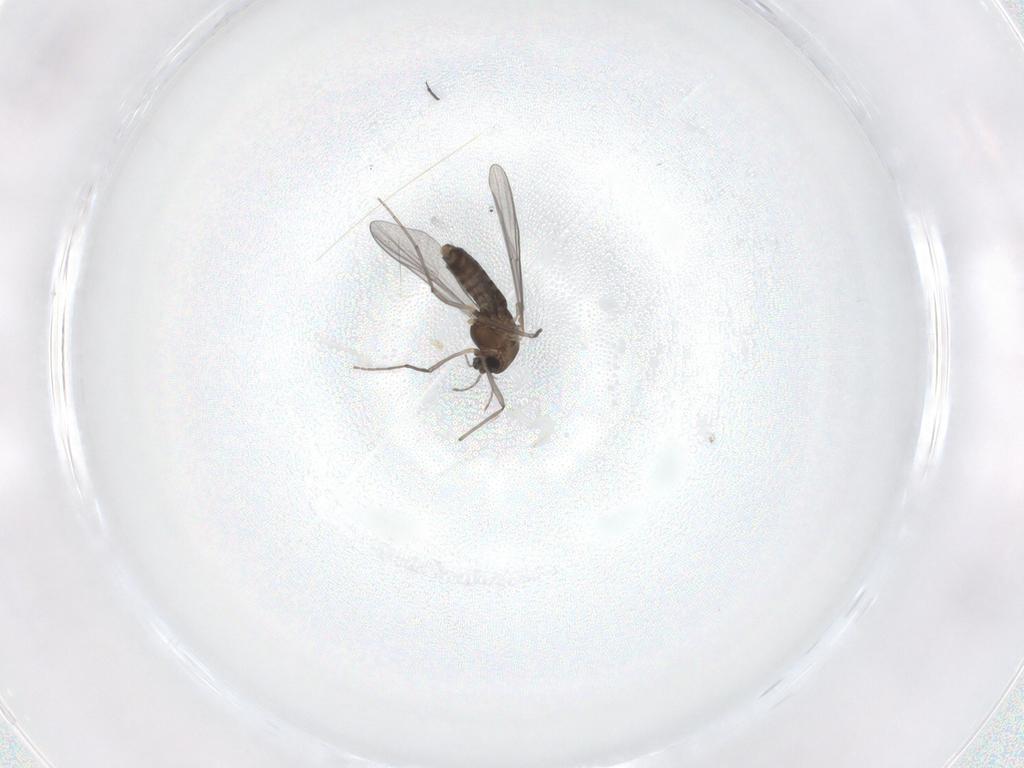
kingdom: Animalia
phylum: Arthropoda
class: Insecta
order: Diptera
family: Chironomidae
